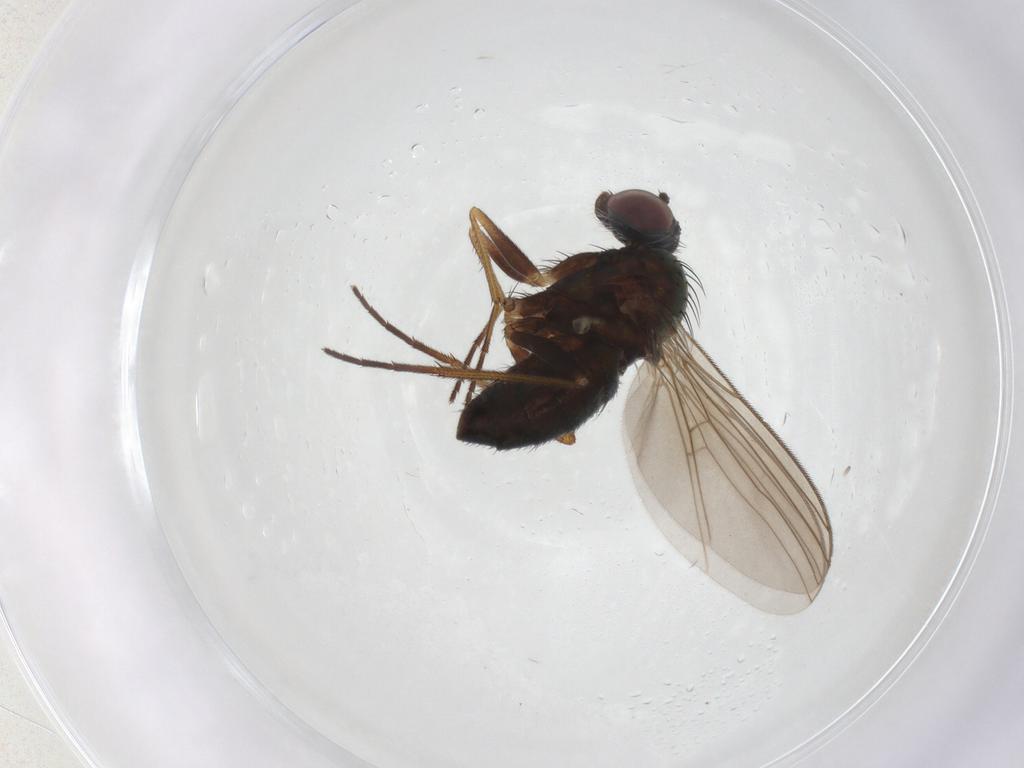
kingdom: Animalia
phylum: Arthropoda
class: Insecta
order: Diptera
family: Dolichopodidae
